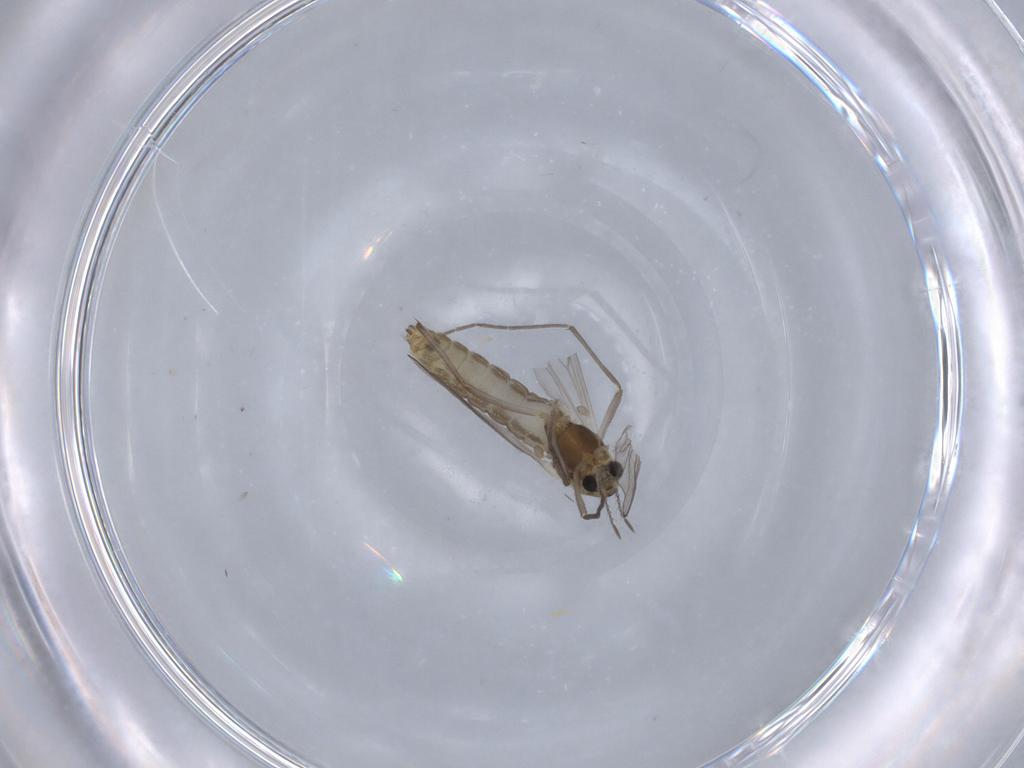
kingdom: Animalia
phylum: Arthropoda
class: Insecta
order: Diptera
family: Chironomidae
